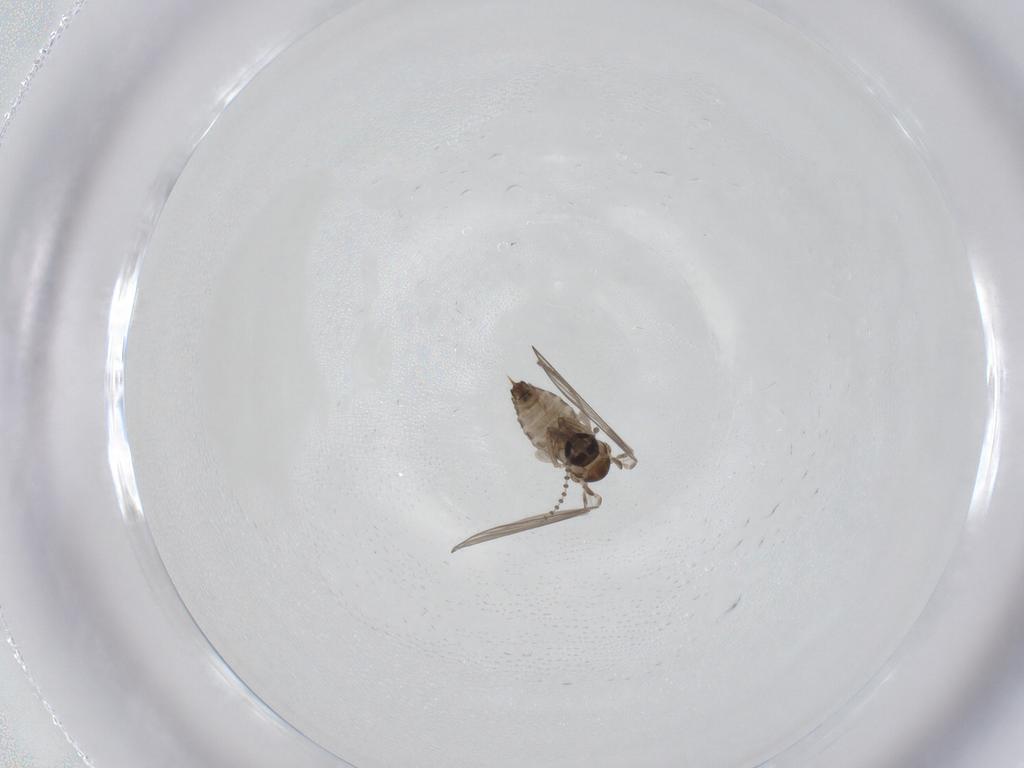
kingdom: Animalia
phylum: Arthropoda
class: Insecta
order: Diptera
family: Psychodidae
